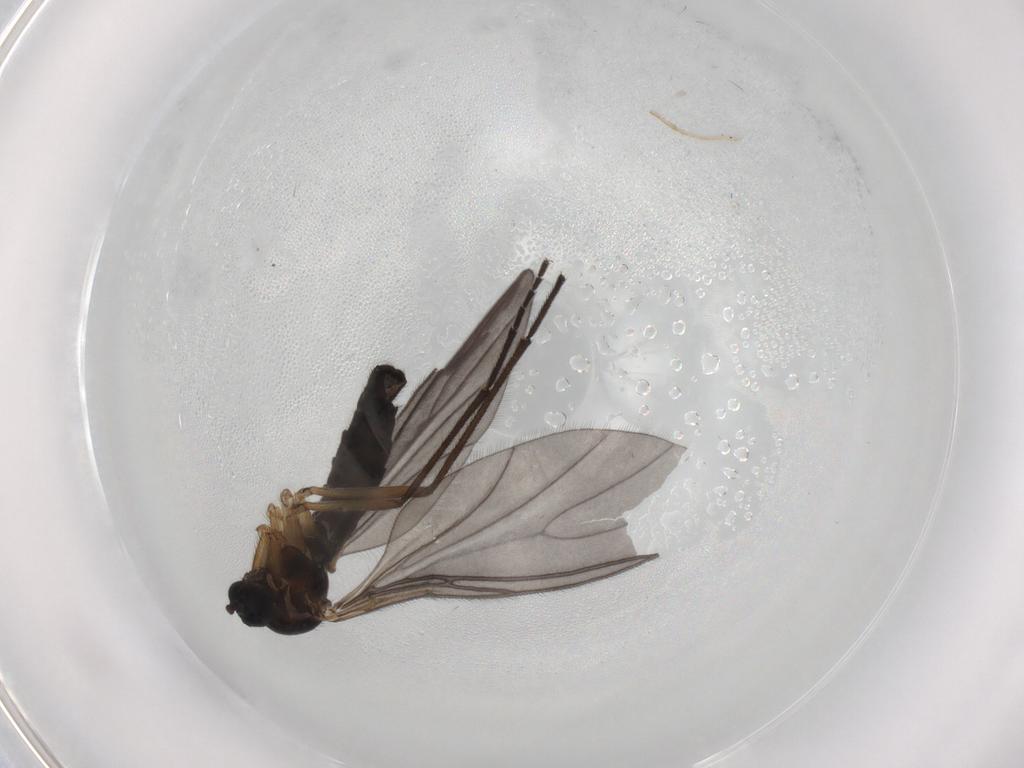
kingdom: Animalia
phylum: Arthropoda
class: Insecta
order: Diptera
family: Sciaridae
